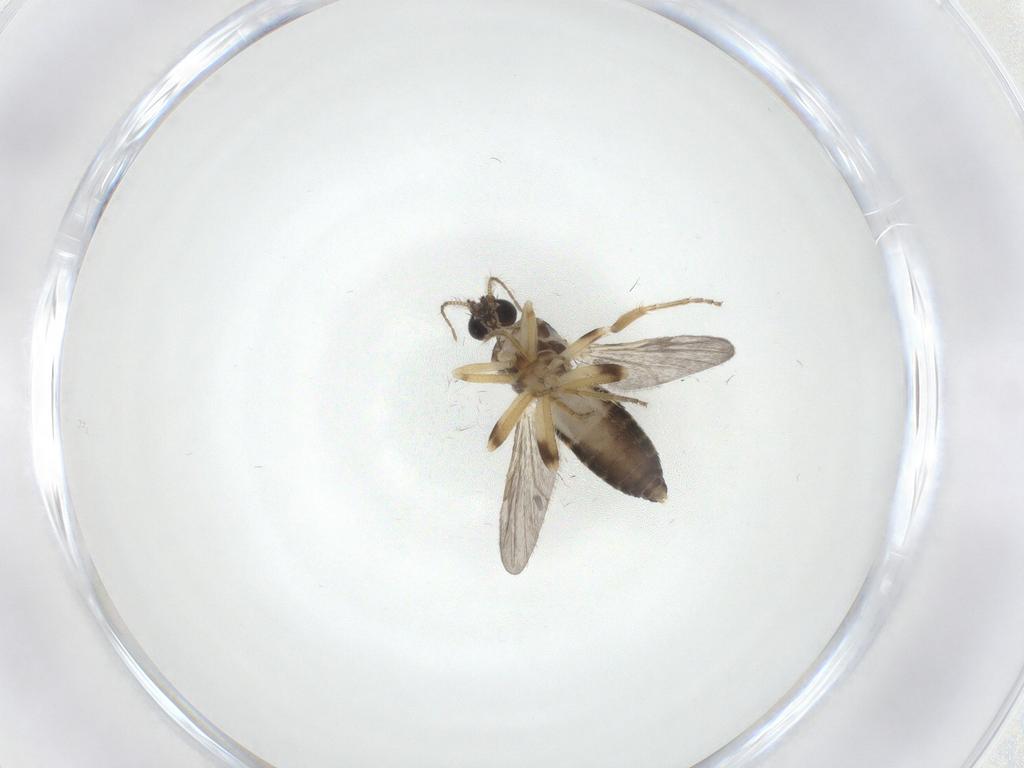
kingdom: Animalia
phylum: Arthropoda
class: Insecta
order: Diptera
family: Ceratopogonidae
